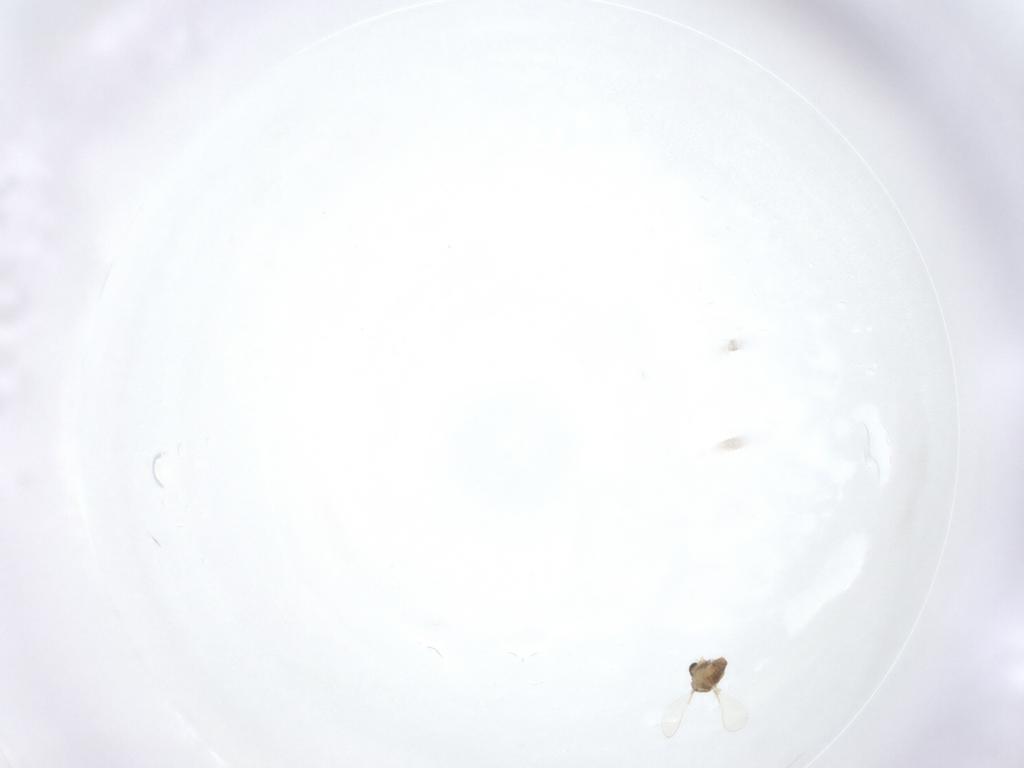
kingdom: Animalia
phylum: Arthropoda
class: Insecta
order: Diptera
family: Chironomidae
